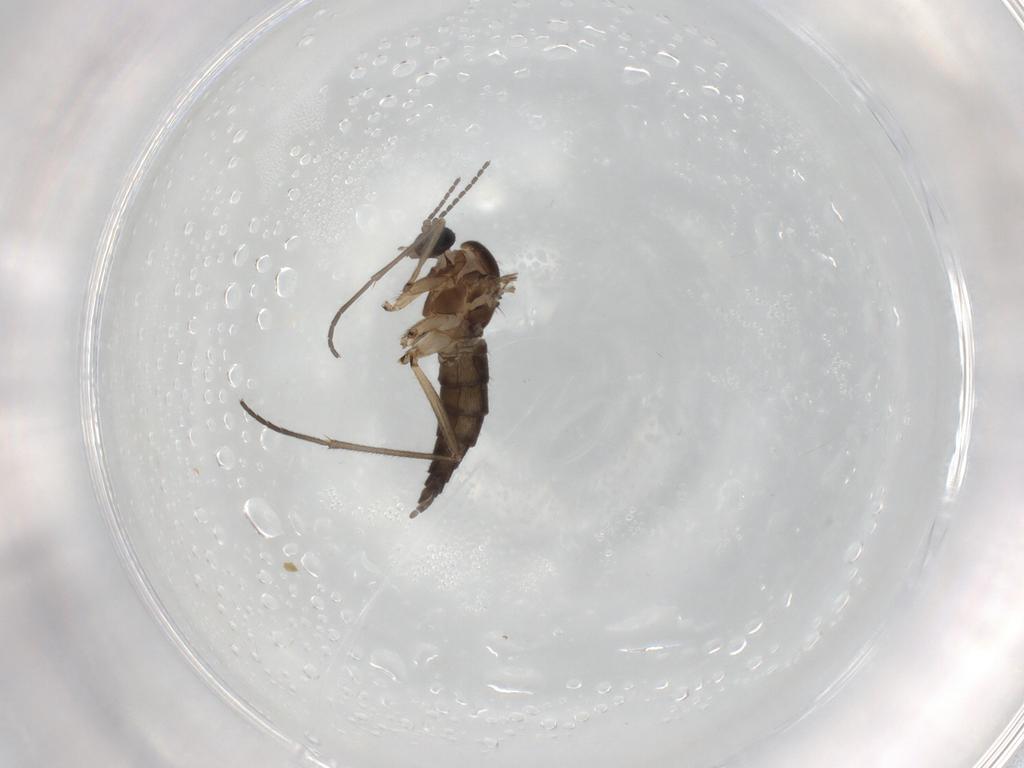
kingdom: Animalia
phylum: Arthropoda
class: Insecta
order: Diptera
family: Sciaridae
